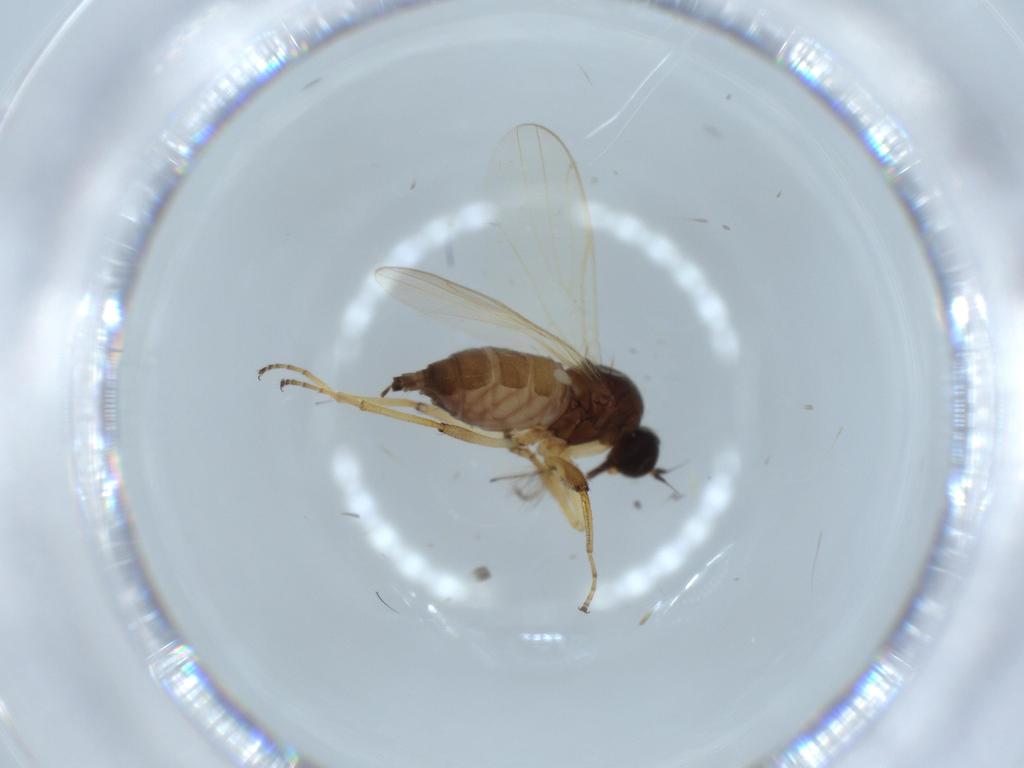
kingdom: Animalia
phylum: Arthropoda
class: Insecta
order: Diptera
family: Hybotidae
